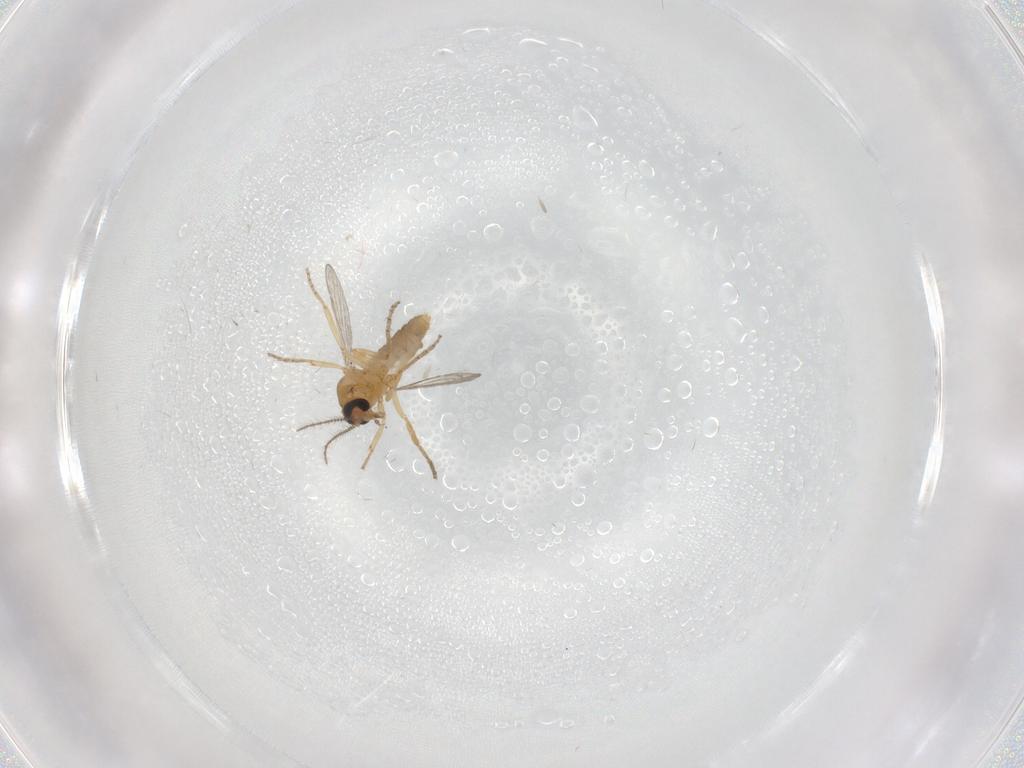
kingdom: Animalia
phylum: Arthropoda
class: Insecta
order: Diptera
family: Ceratopogonidae
